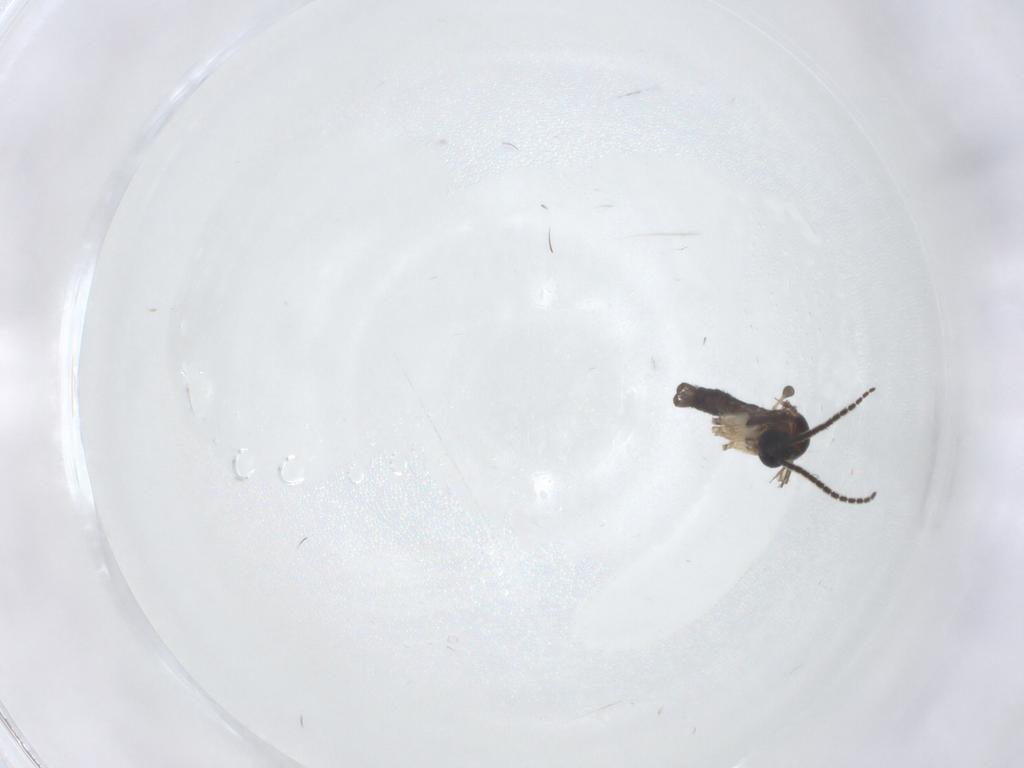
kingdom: Animalia
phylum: Arthropoda
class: Insecta
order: Diptera
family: Sciaridae
